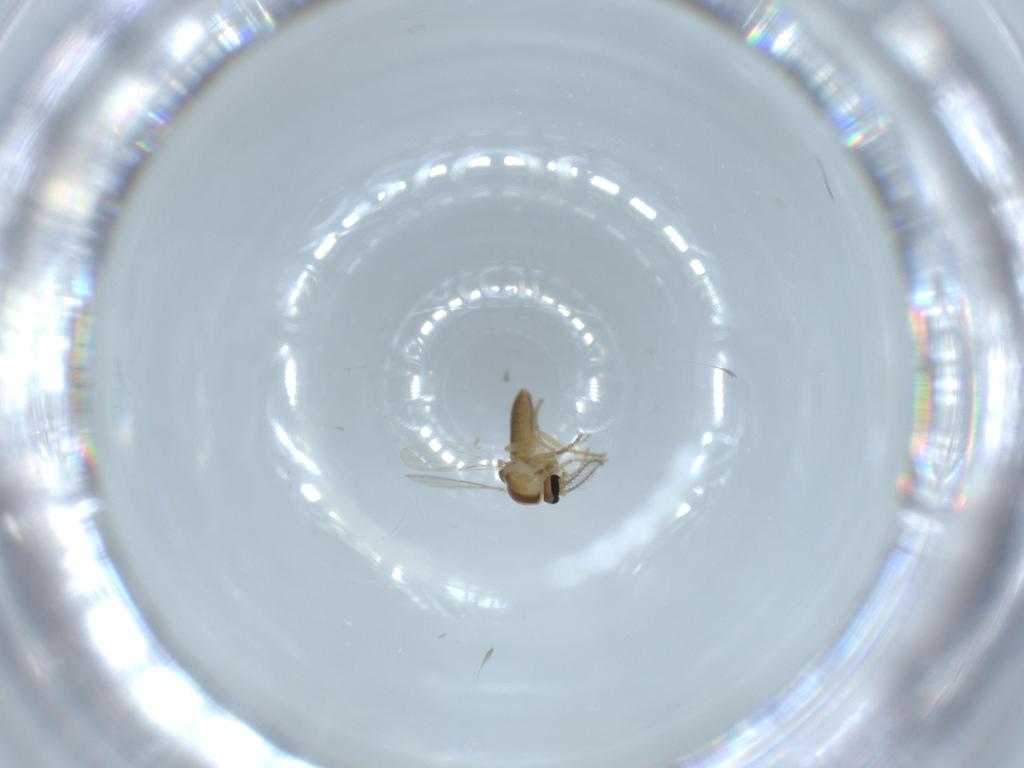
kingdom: Animalia
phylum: Arthropoda
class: Insecta
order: Diptera
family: Ceratopogonidae
